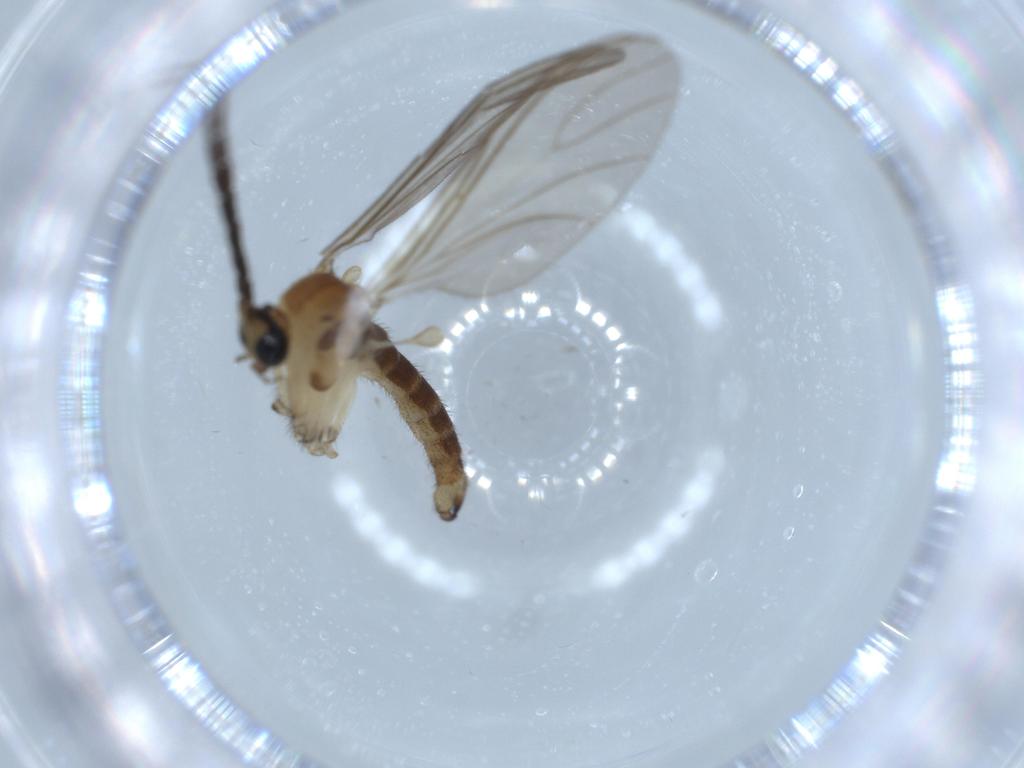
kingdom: Animalia
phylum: Arthropoda
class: Insecta
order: Diptera
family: Sciaridae
